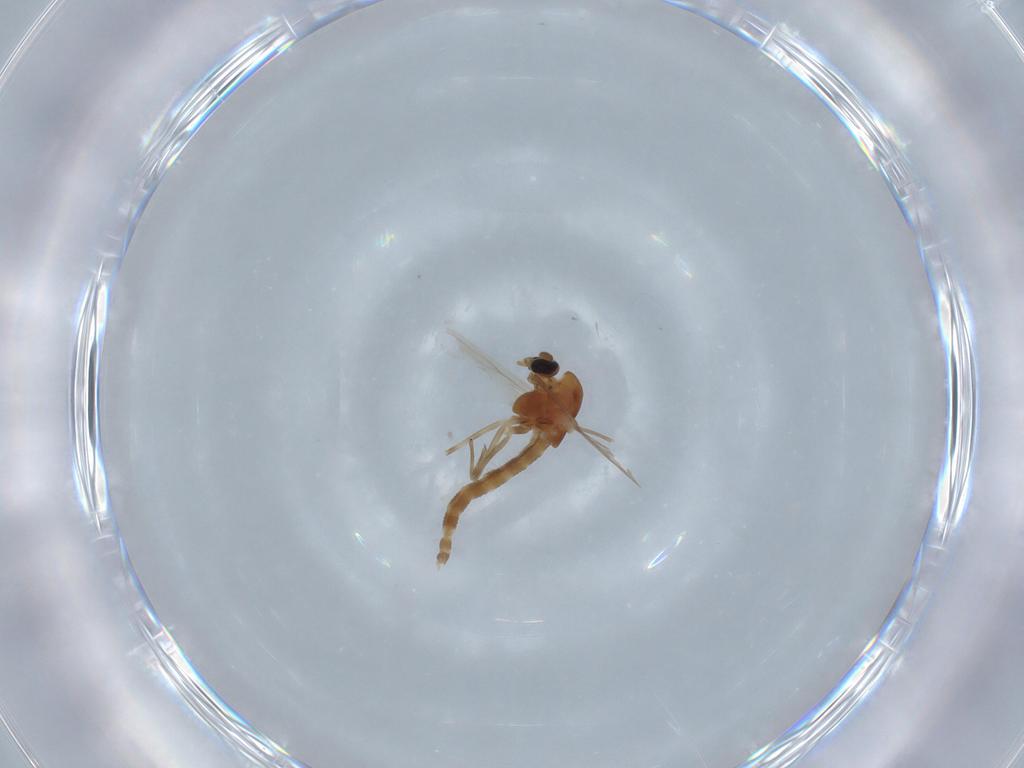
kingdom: Animalia
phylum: Arthropoda
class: Insecta
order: Diptera
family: Chironomidae
